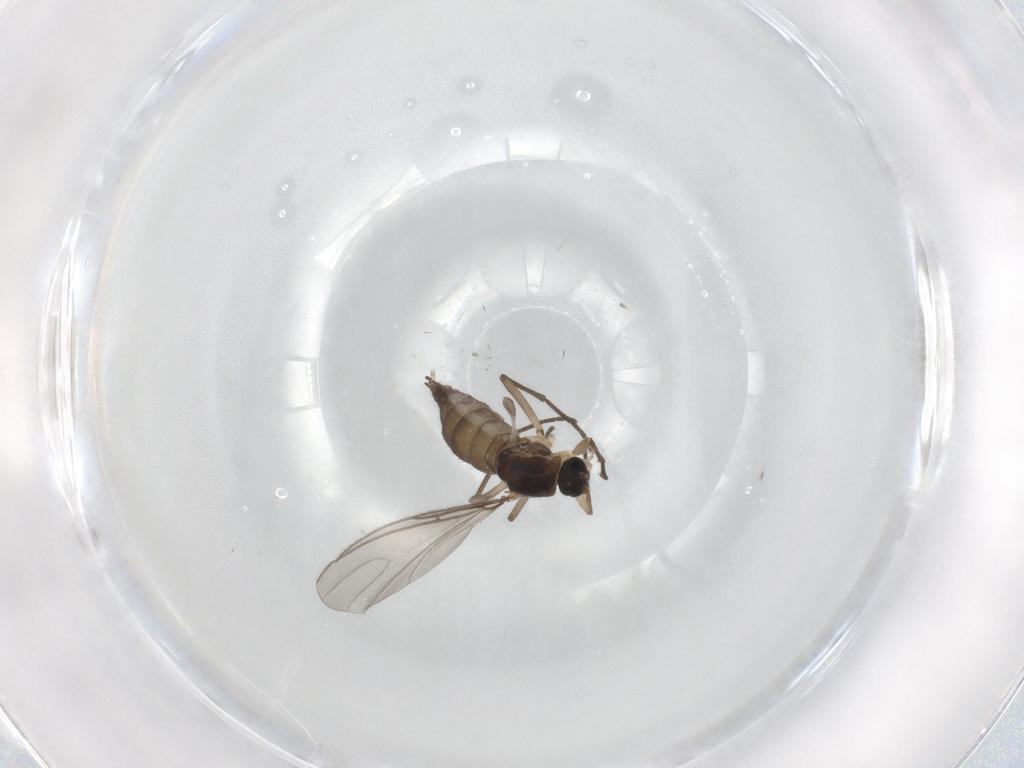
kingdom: Animalia
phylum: Arthropoda
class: Insecta
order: Diptera
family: Sciaridae
